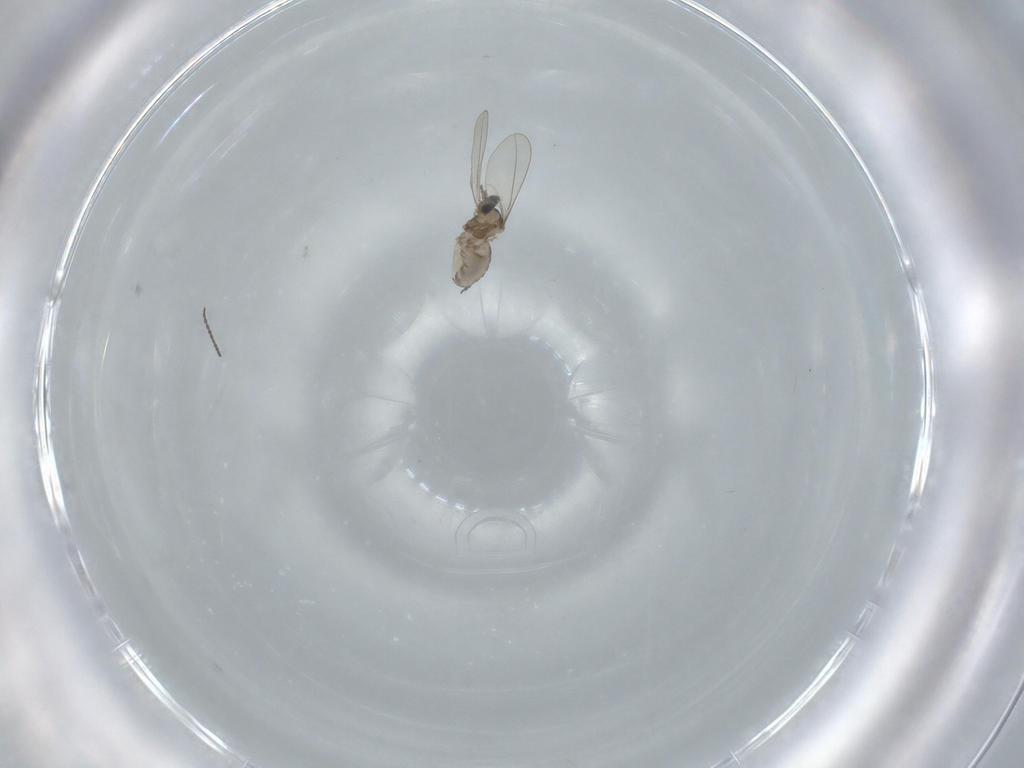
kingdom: Animalia
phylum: Arthropoda
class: Insecta
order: Diptera
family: Cecidomyiidae
